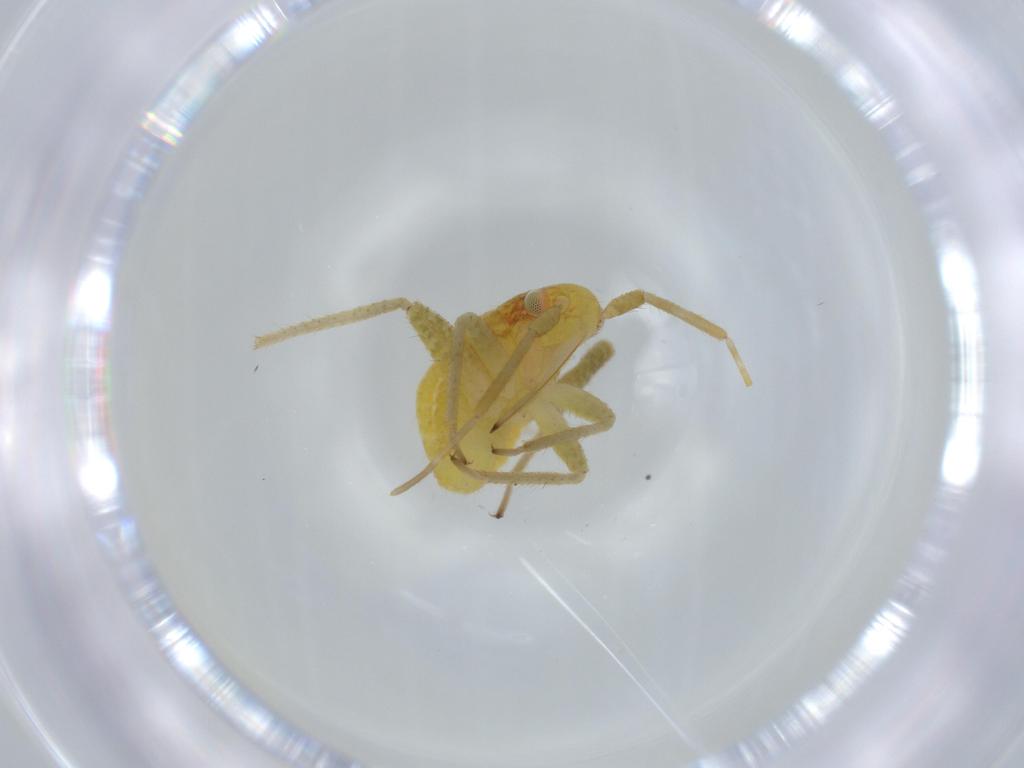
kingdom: Animalia
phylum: Arthropoda
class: Insecta
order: Hemiptera
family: Miridae
